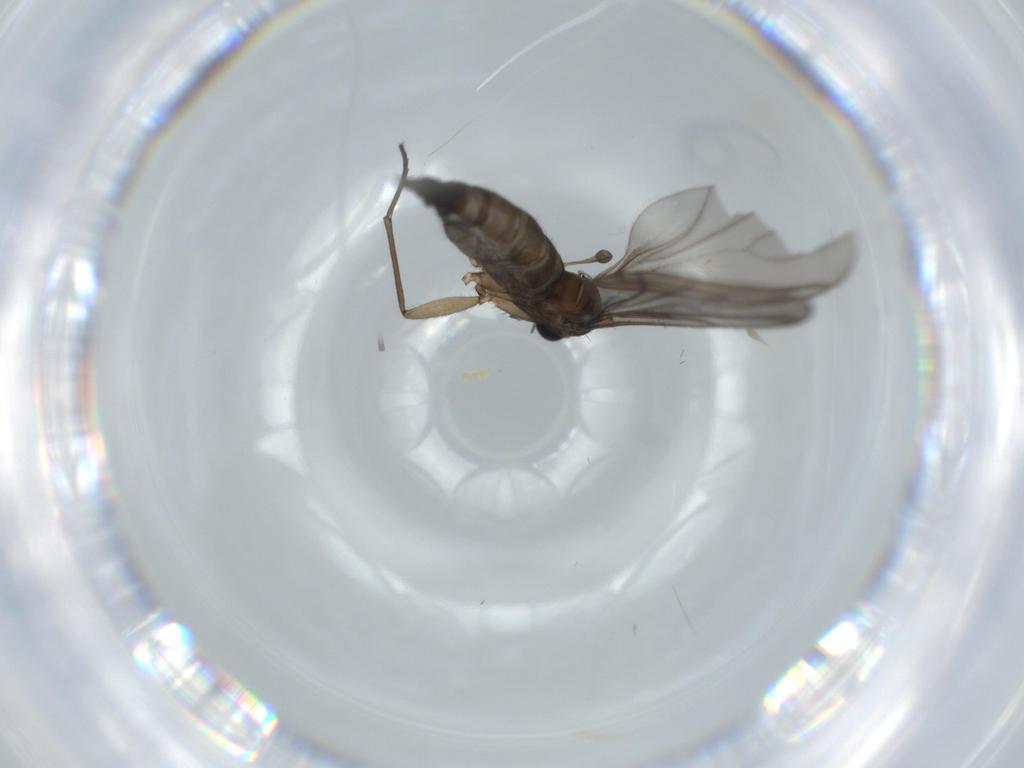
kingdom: Animalia
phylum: Arthropoda
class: Insecta
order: Diptera
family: Sciaridae
